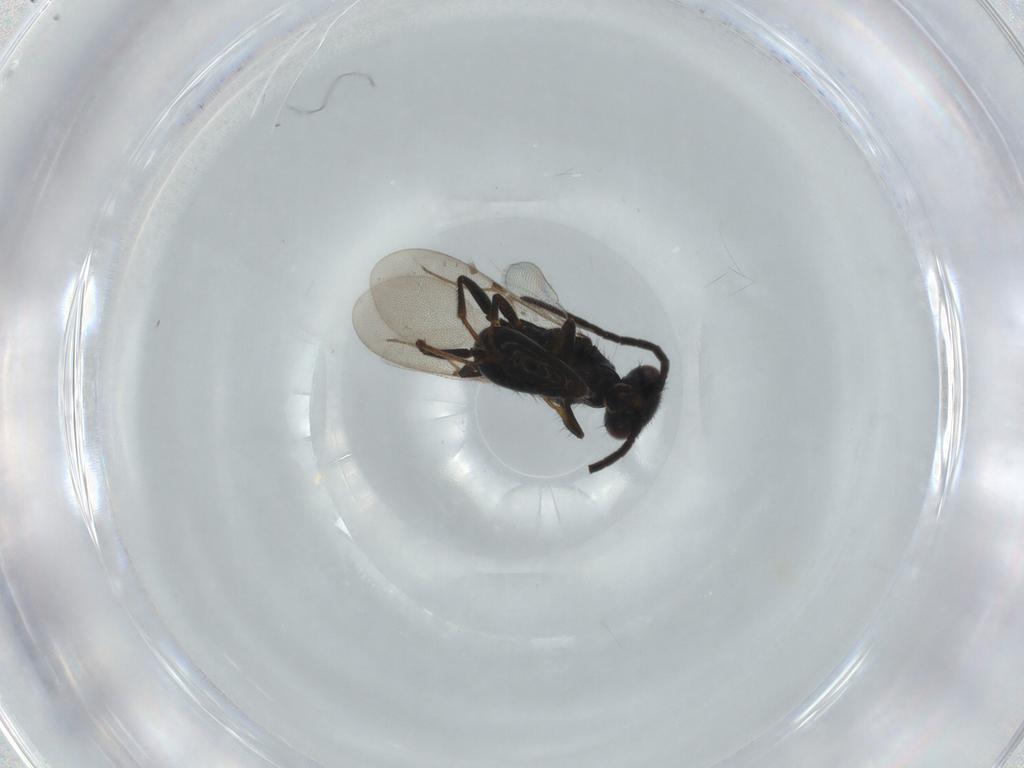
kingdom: Animalia
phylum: Arthropoda
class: Insecta
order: Hymenoptera
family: Bethylidae
